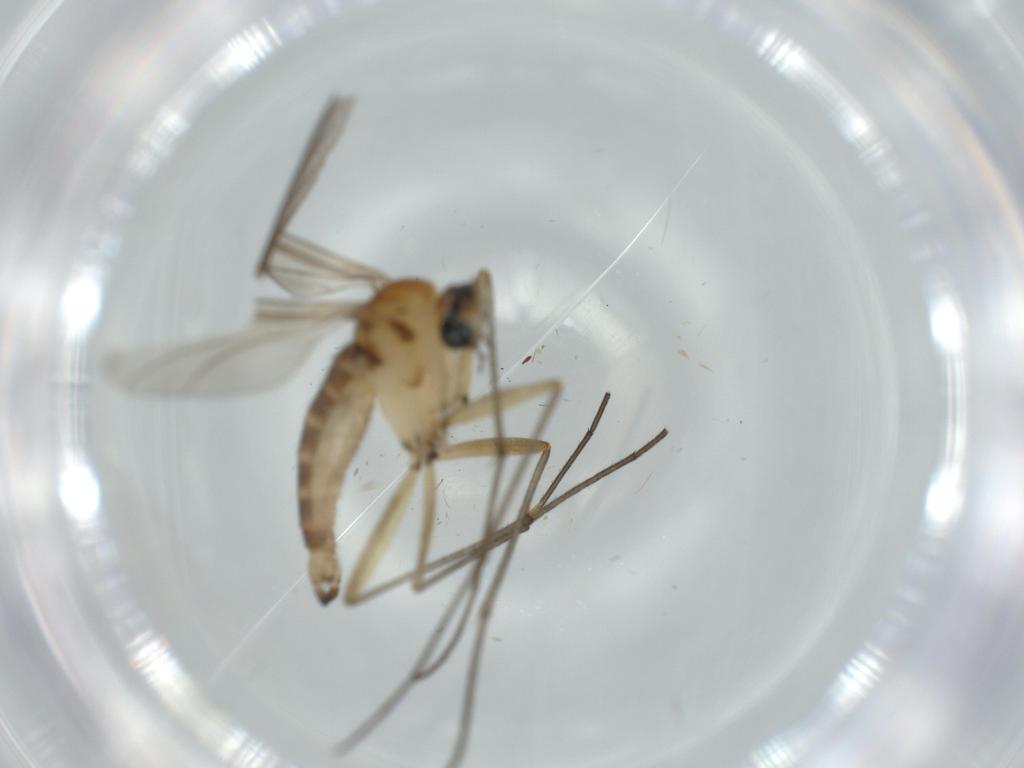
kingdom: Animalia
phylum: Arthropoda
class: Insecta
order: Diptera
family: Sciaridae
